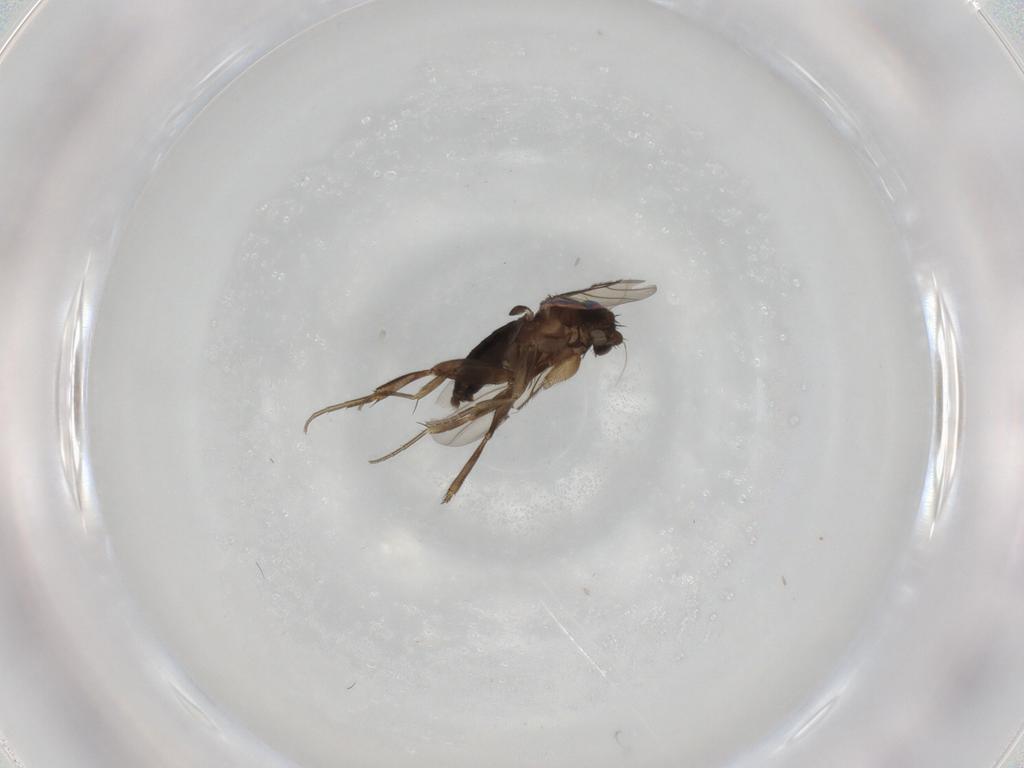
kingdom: Animalia
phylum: Arthropoda
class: Insecta
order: Diptera
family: Phoridae
